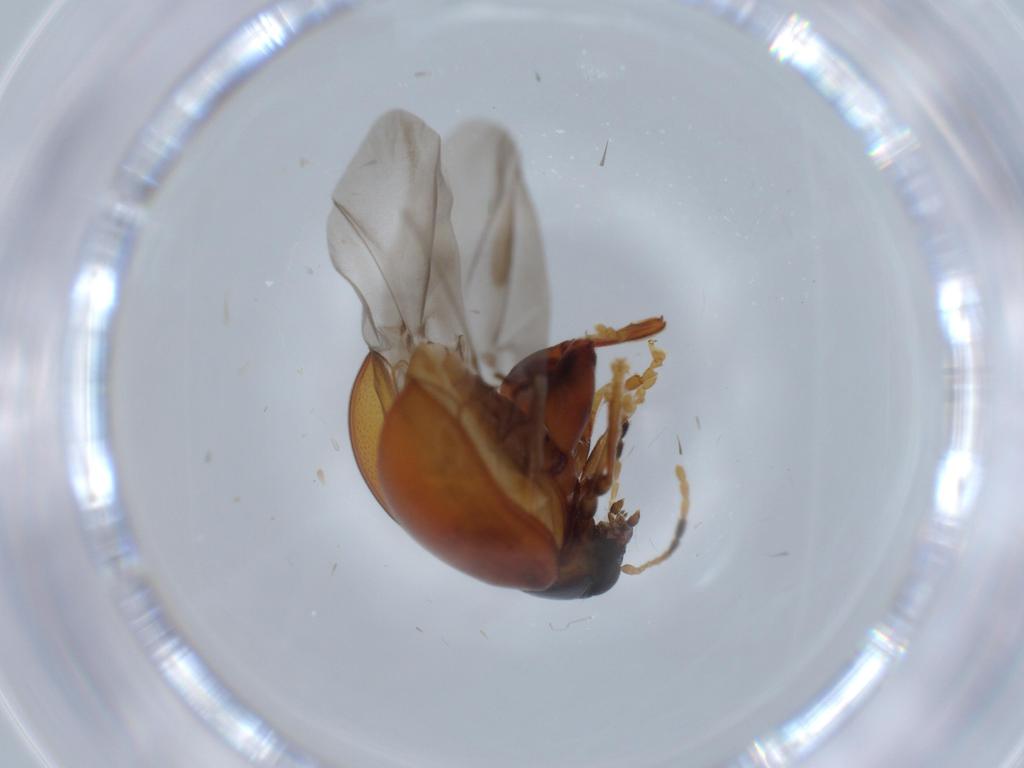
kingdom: Animalia
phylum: Arthropoda
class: Insecta
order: Coleoptera
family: Chrysomelidae
